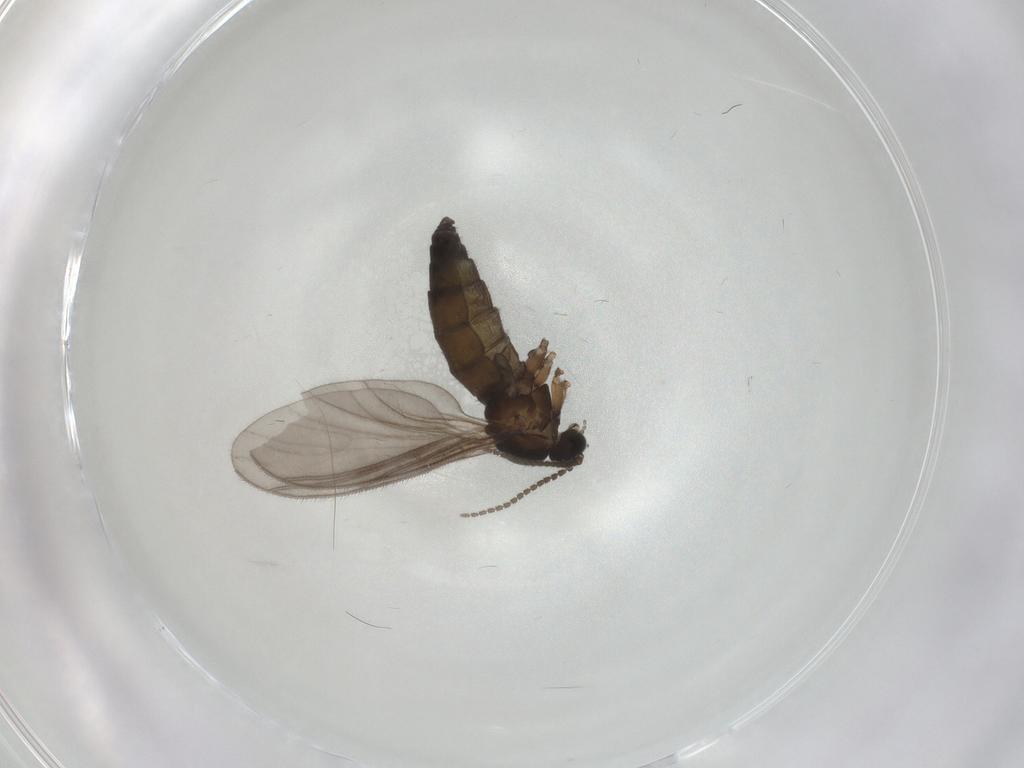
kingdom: Animalia
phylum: Arthropoda
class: Insecta
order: Diptera
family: Sciaridae
